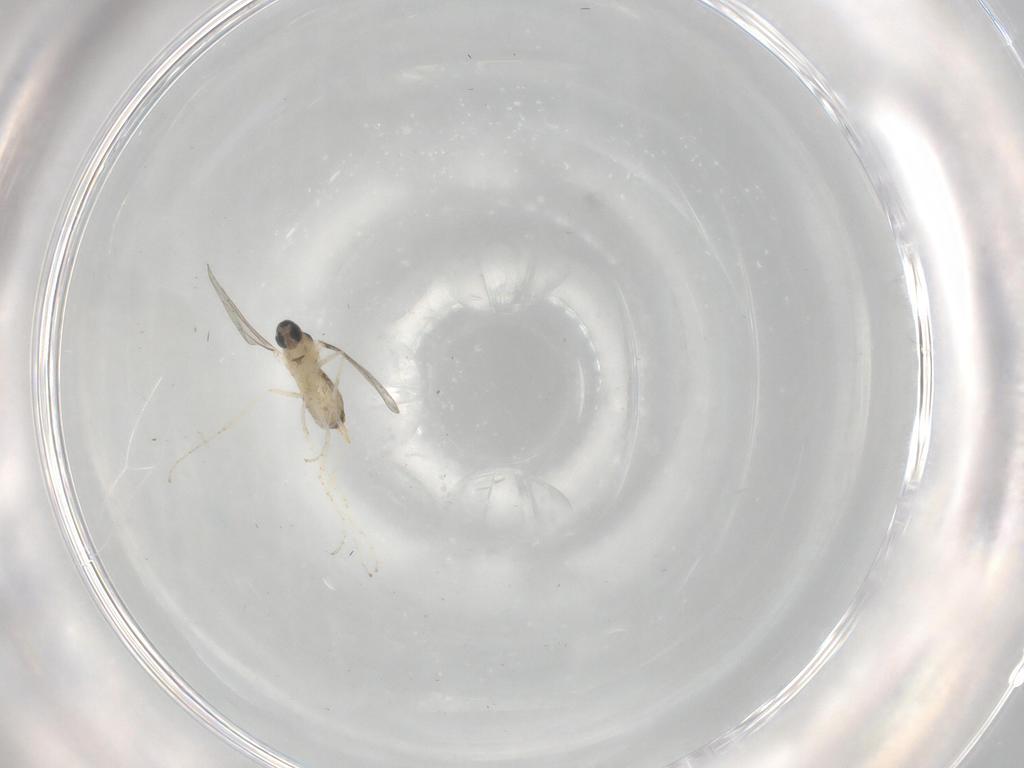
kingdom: Animalia
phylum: Arthropoda
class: Insecta
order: Diptera
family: Cecidomyiidae
